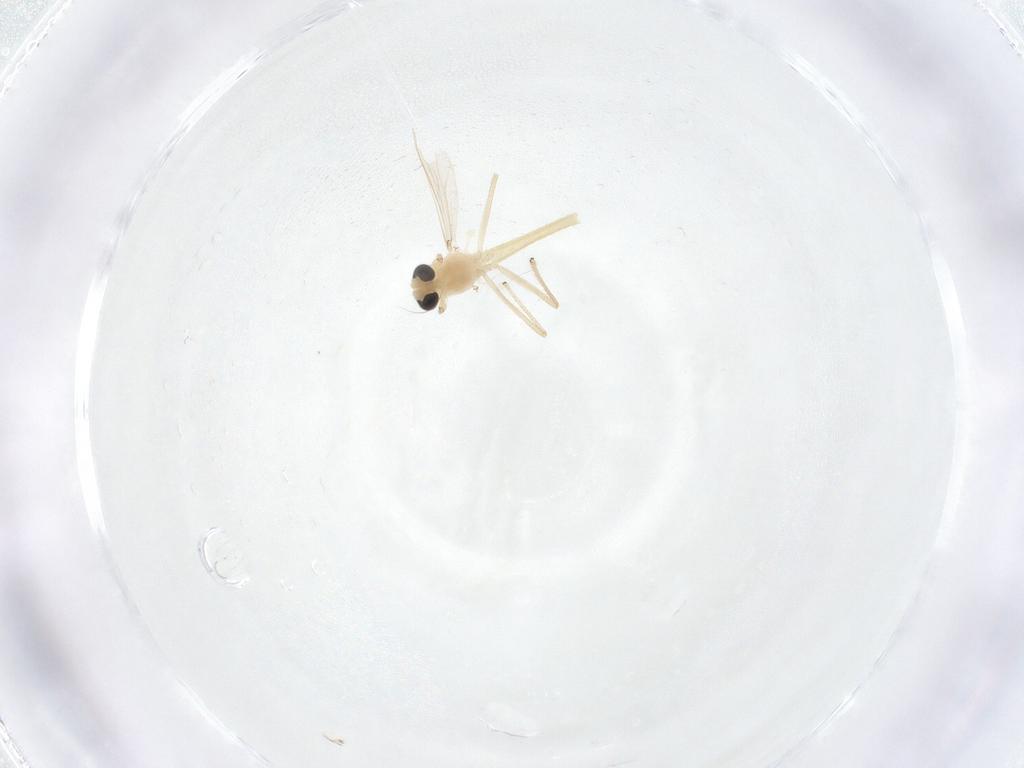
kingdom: Animalia
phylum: Arthropoda
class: Insecta
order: Diptera
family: Chironomidae
